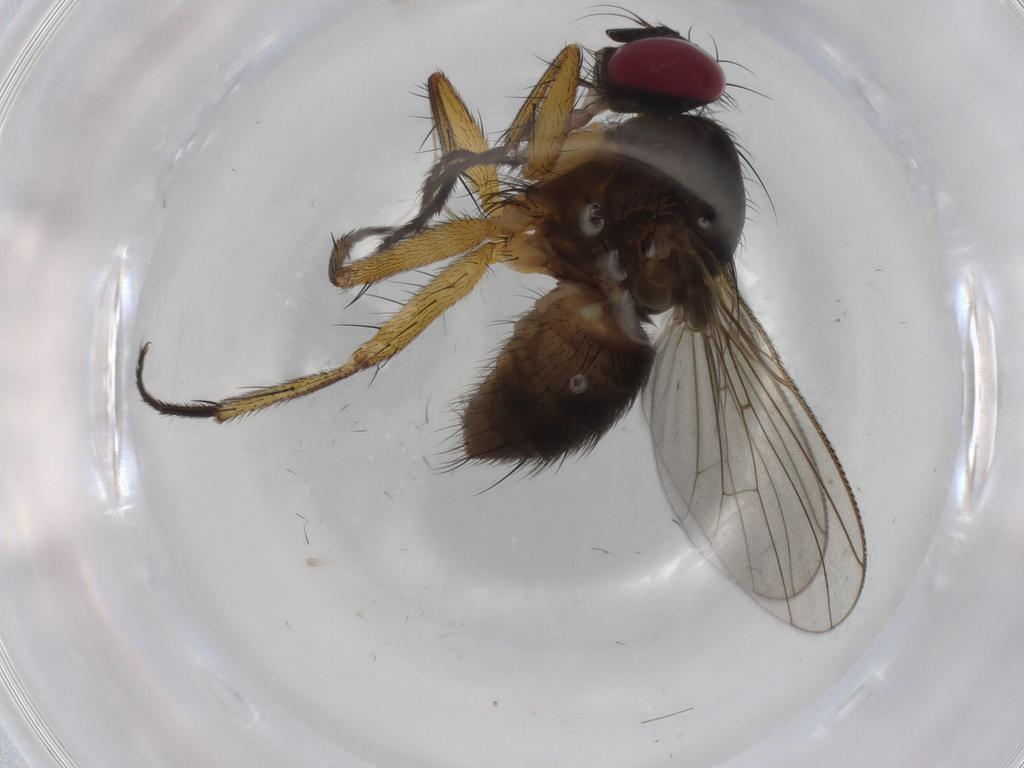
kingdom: Animalia
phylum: Arthropoda
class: Insecta
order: Diptera
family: Muscidae
